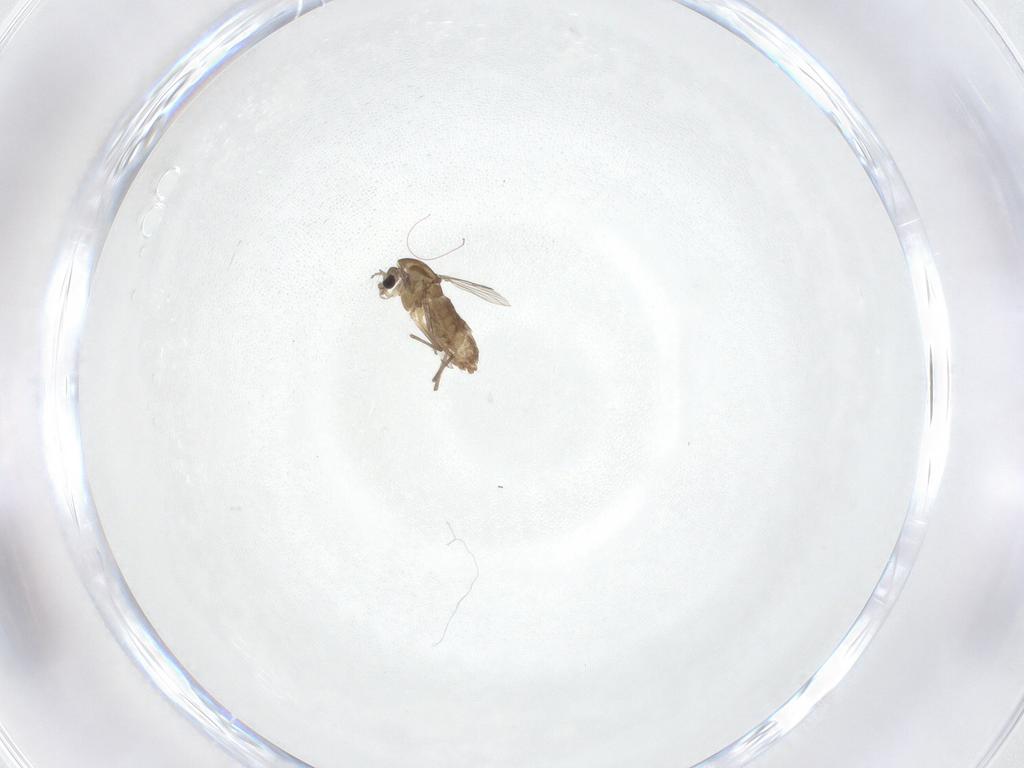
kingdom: Animalia
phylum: Arthropoda
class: Insecta
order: Diptera
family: Chironomidae
